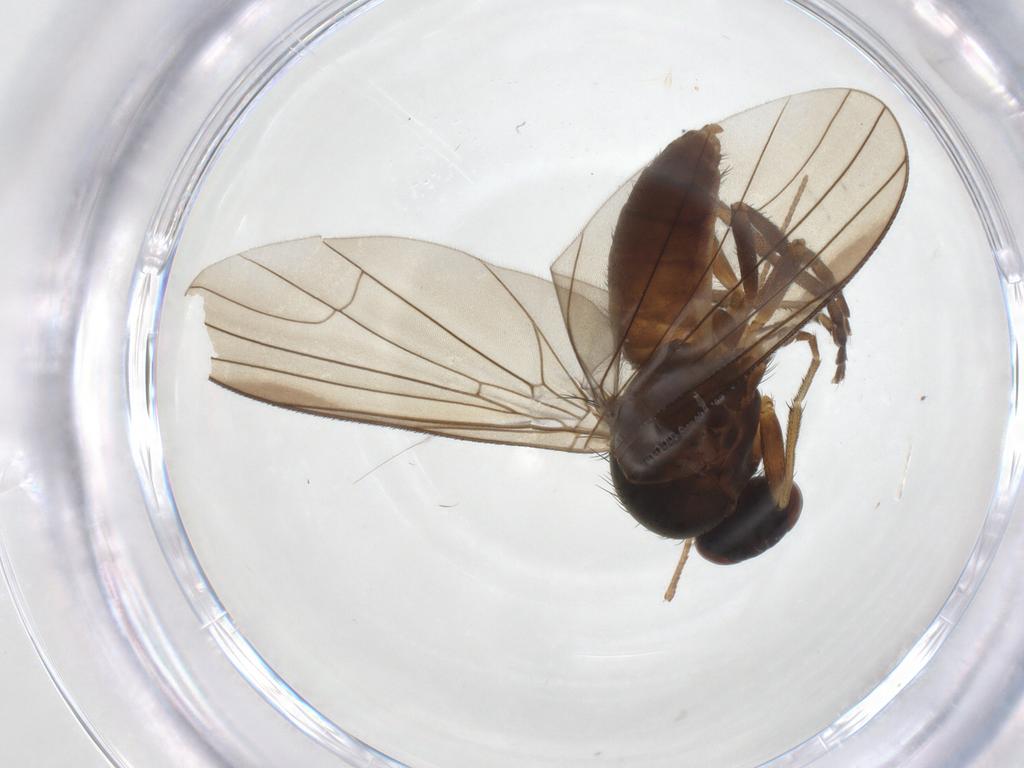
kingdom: Animalia
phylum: Arthropoda
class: Insecta
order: Diptera
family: Platypezidae
